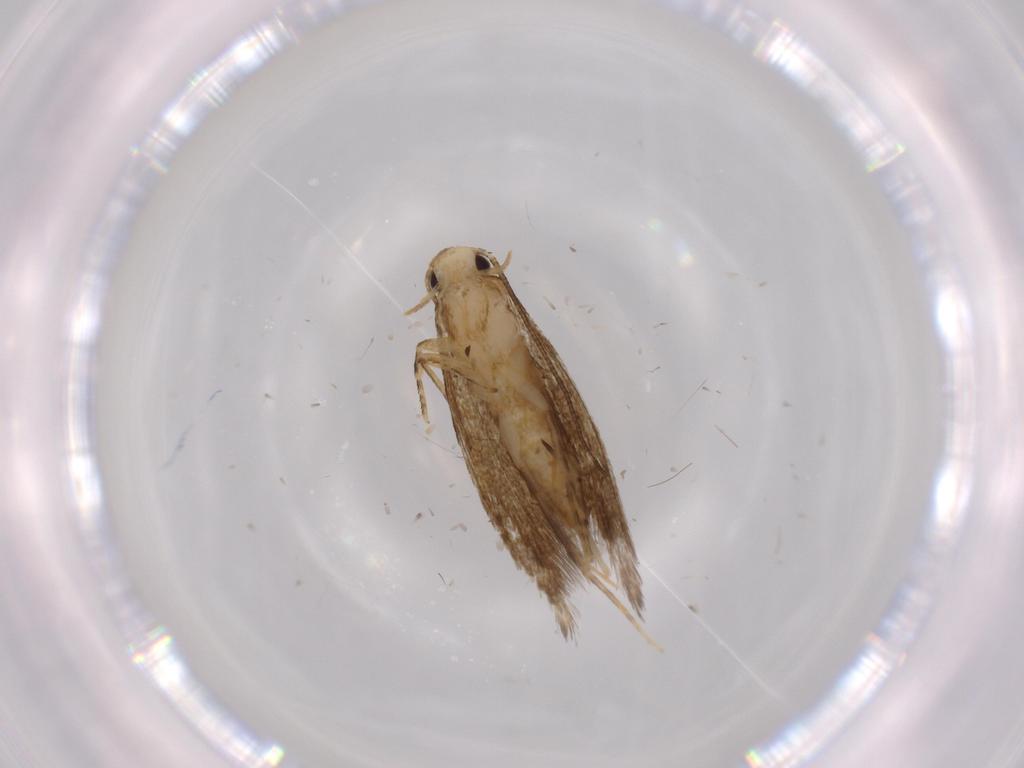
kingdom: Animalia
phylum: Arthropoda
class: Insecta
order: Lepidoptera
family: Tineidae
